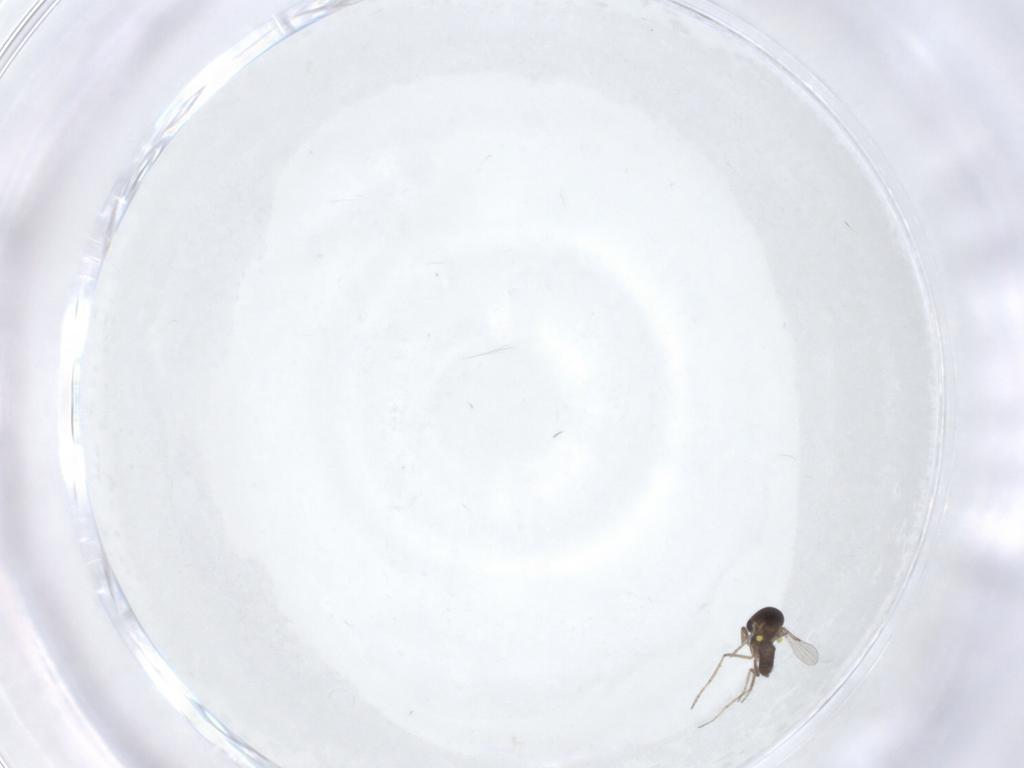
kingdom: Animalia
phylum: Arthropoda
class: Insecta
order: Diptera
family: Ceratopogonidae
